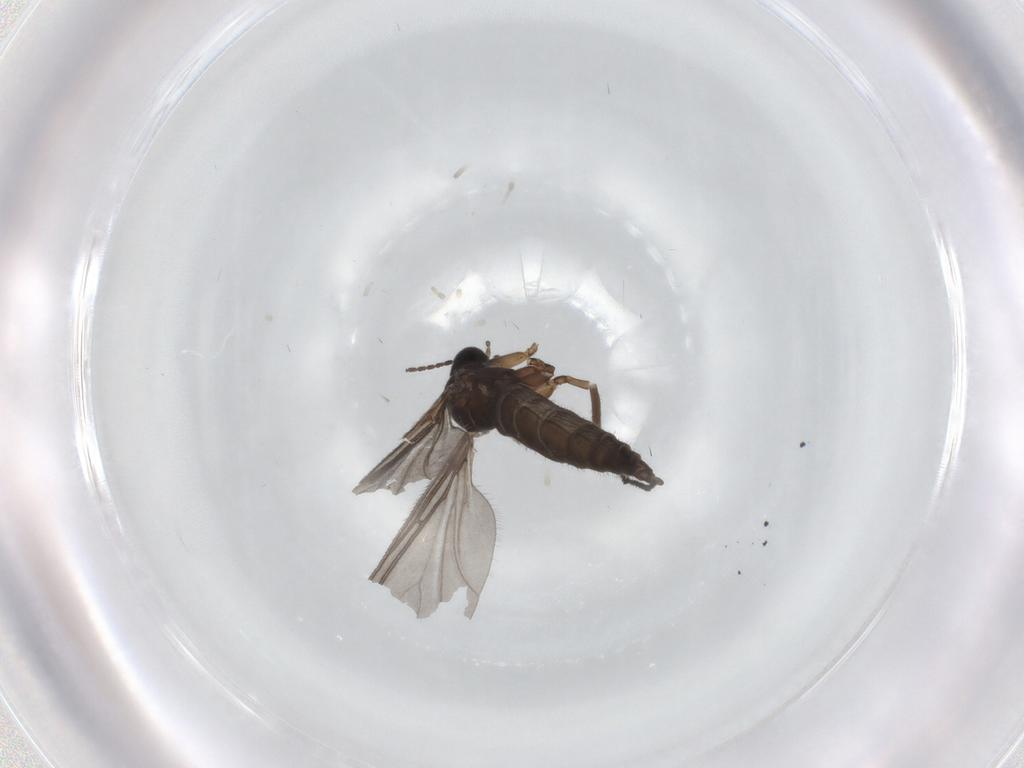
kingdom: Animalia
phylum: Arthropoda
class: Insecta
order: Diptera
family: Sciaridae
